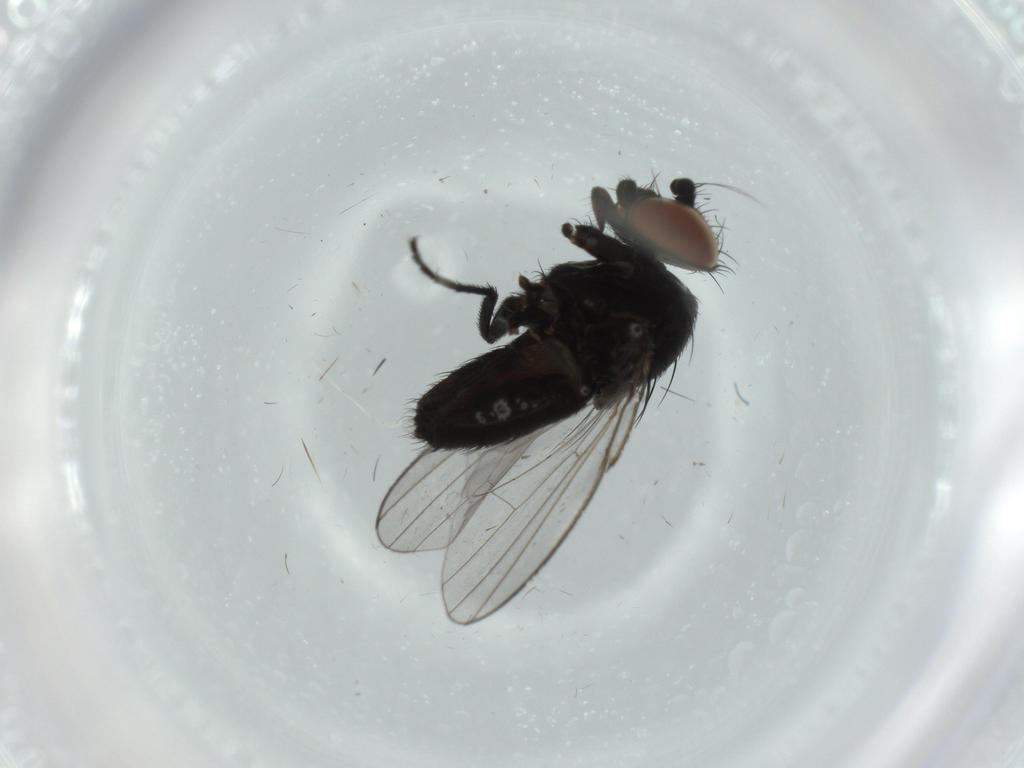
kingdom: Animalia
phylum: Arthropoda
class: Insecta
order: Diptera
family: Milichiidae
